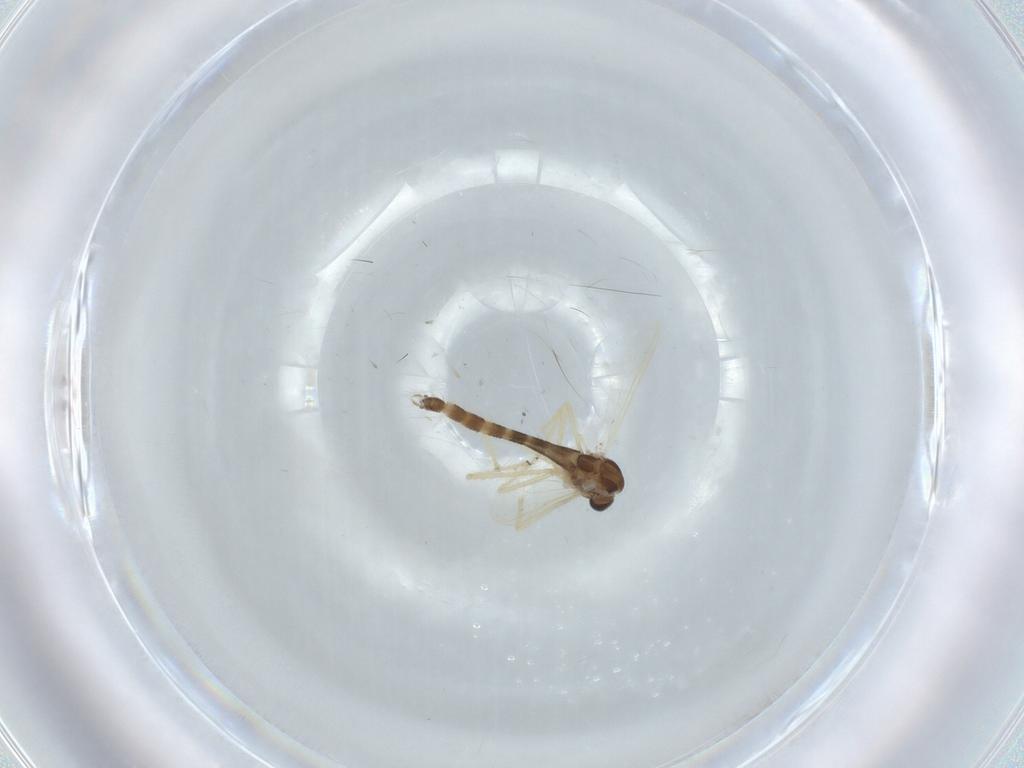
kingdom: Animalia
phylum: Arthropoda
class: Insecta
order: Diptera
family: Chironomidae
